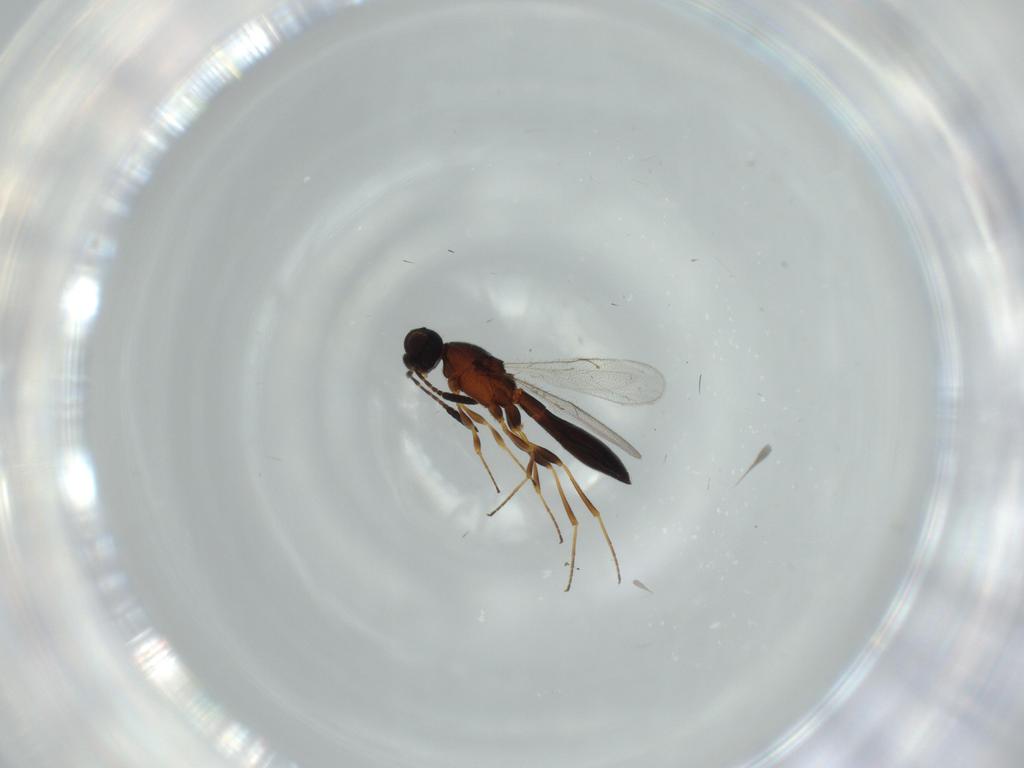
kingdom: Animalia
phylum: Arthropoda
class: Insecta
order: Hymenoptera
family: Scelionidae
